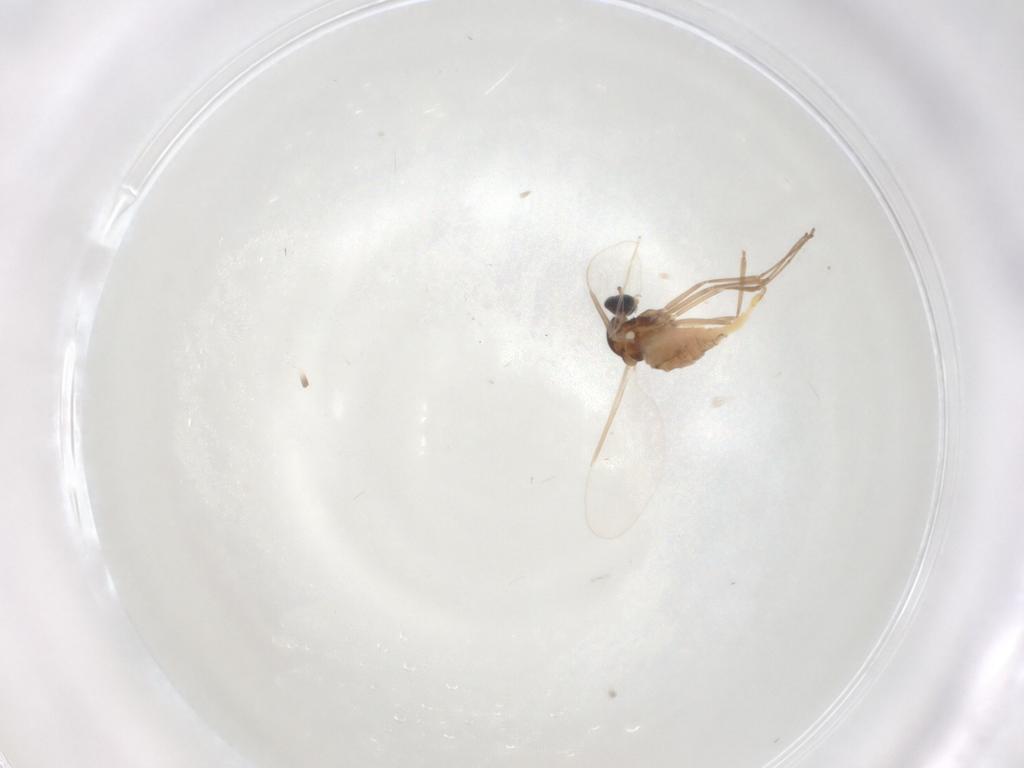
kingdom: Animalia
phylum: Arthropoda
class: Insecta
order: Diptera
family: Cecidomyiidae
